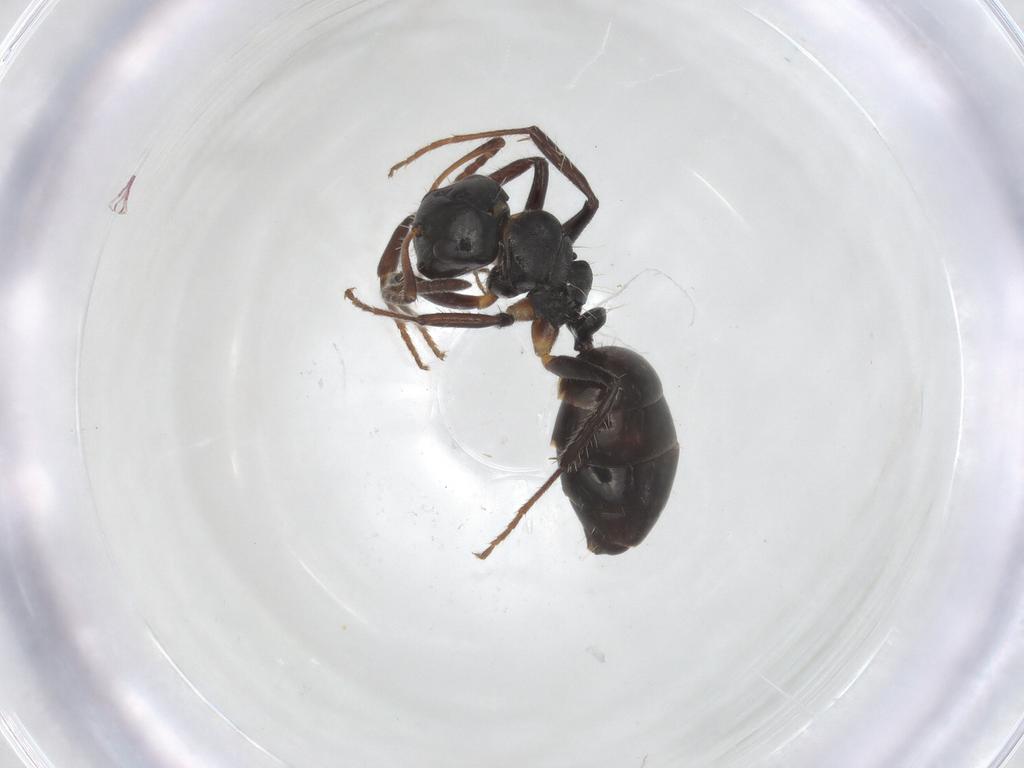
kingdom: Animalia
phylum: Arthropoda
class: Insecta
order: Hymenoptera
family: Formicidae
